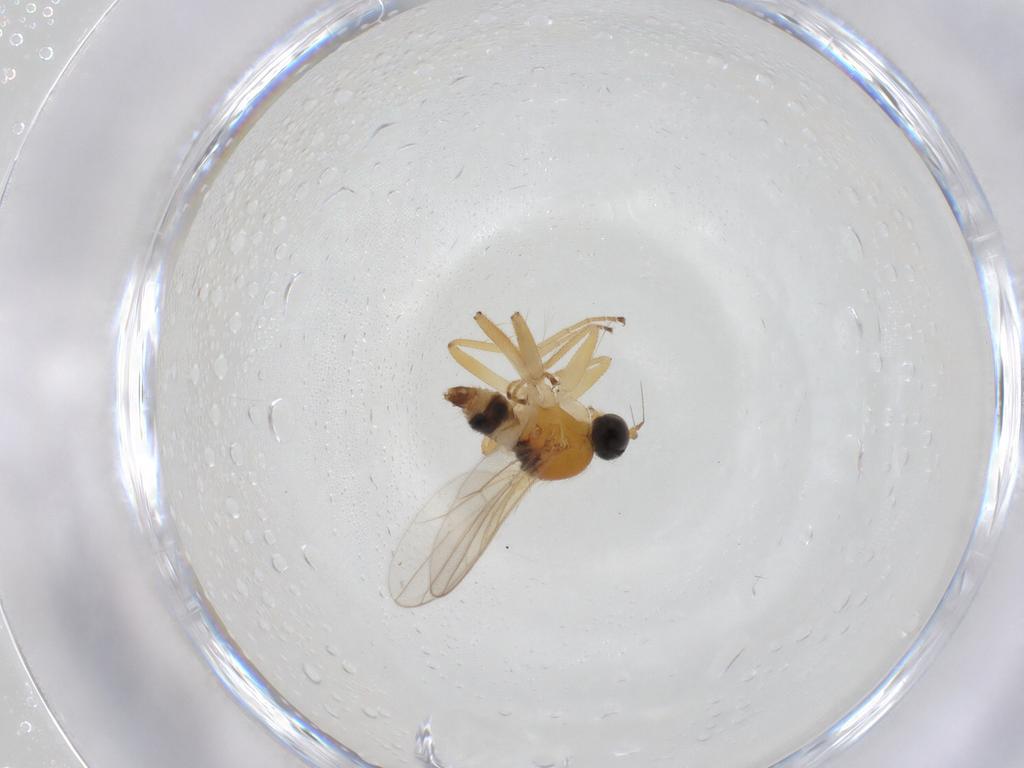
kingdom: Animalia
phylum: Arthropoda
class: Insecta
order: Diptera
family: Hybotidae
